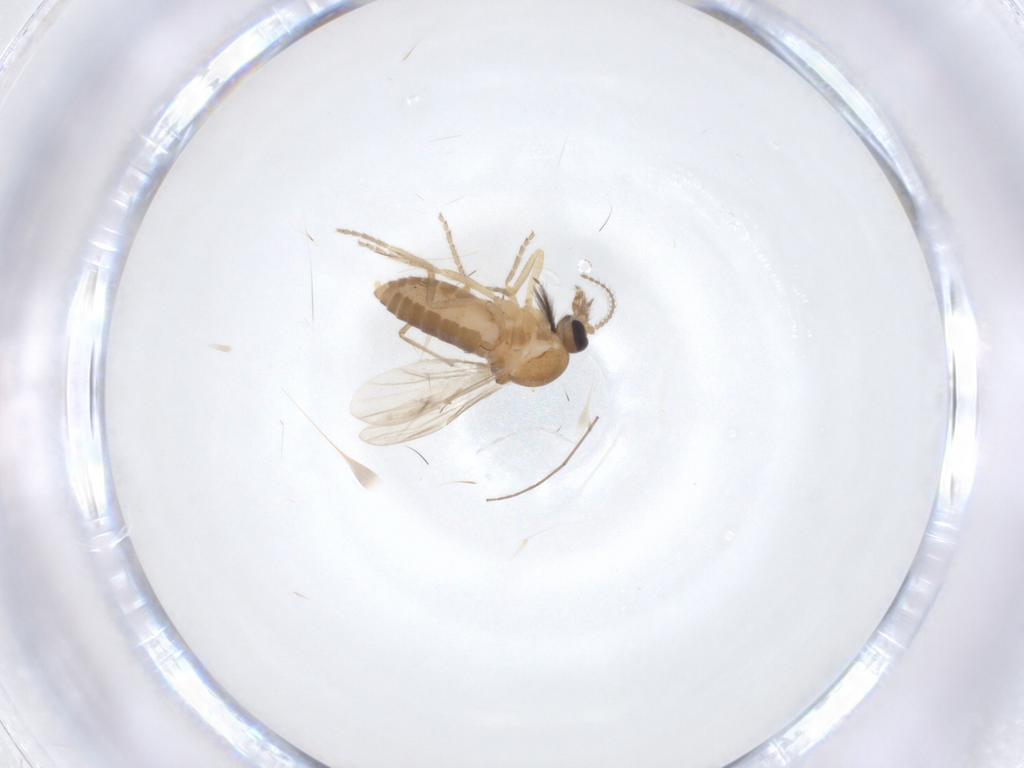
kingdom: Animalia
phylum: Arthropoda
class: Insecta
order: Diptera
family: Ceratopogonidae
